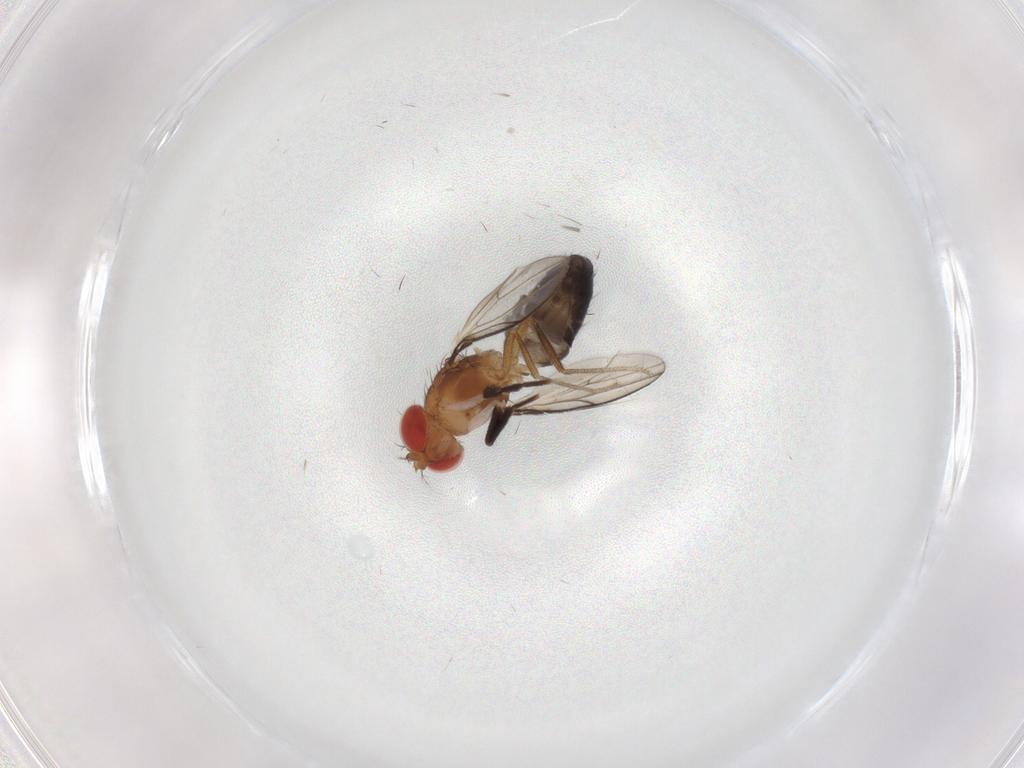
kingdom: Animalia
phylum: Arthropoda
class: Insecta
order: Diptera
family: Drosophilidae
